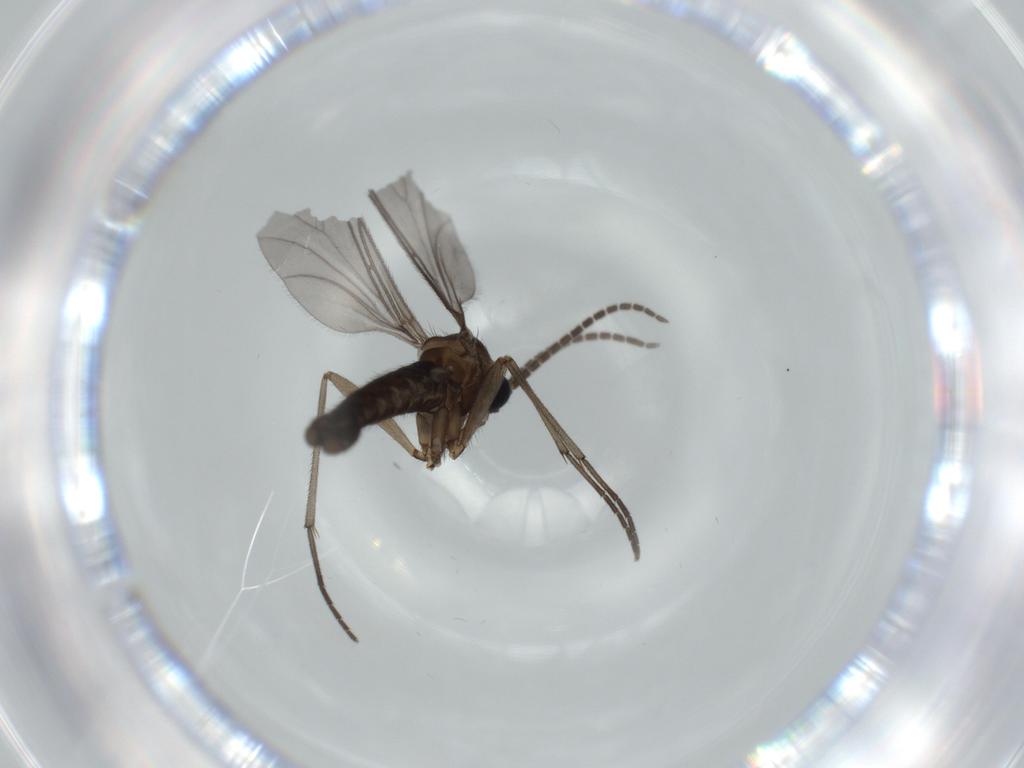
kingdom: Animalia
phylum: Arthropoda
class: Insecta
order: Diptera
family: Sciaridae
